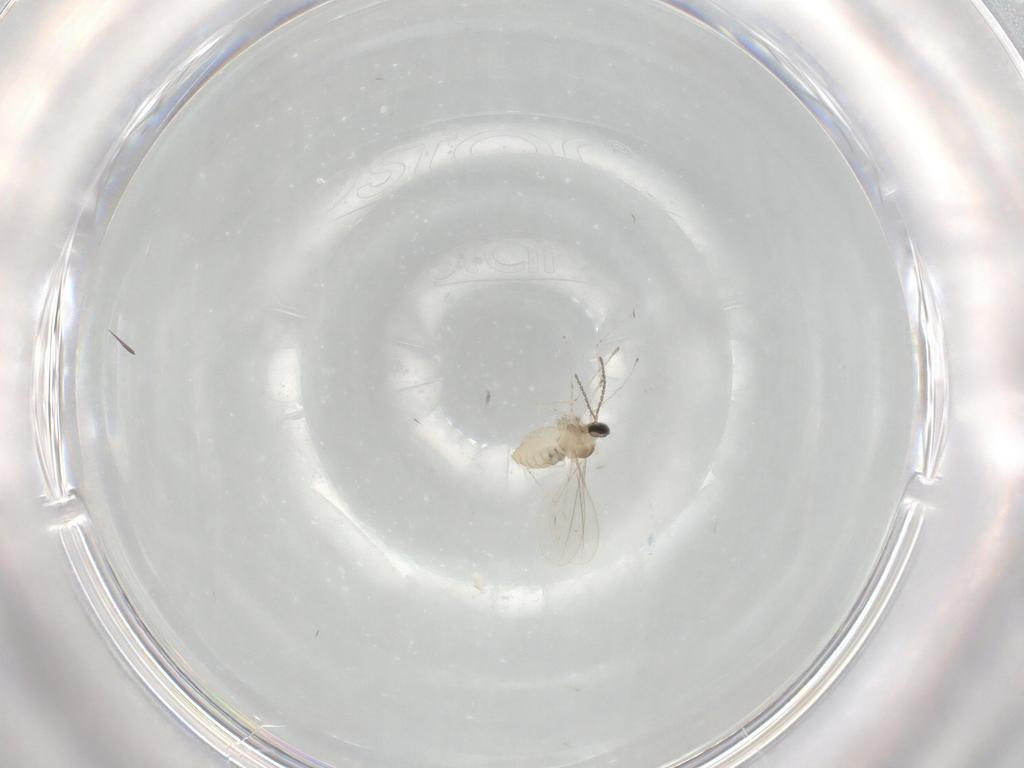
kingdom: Animalia
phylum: Arthropoda
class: Insecta
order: Diptera
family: Cecidomyiidae
